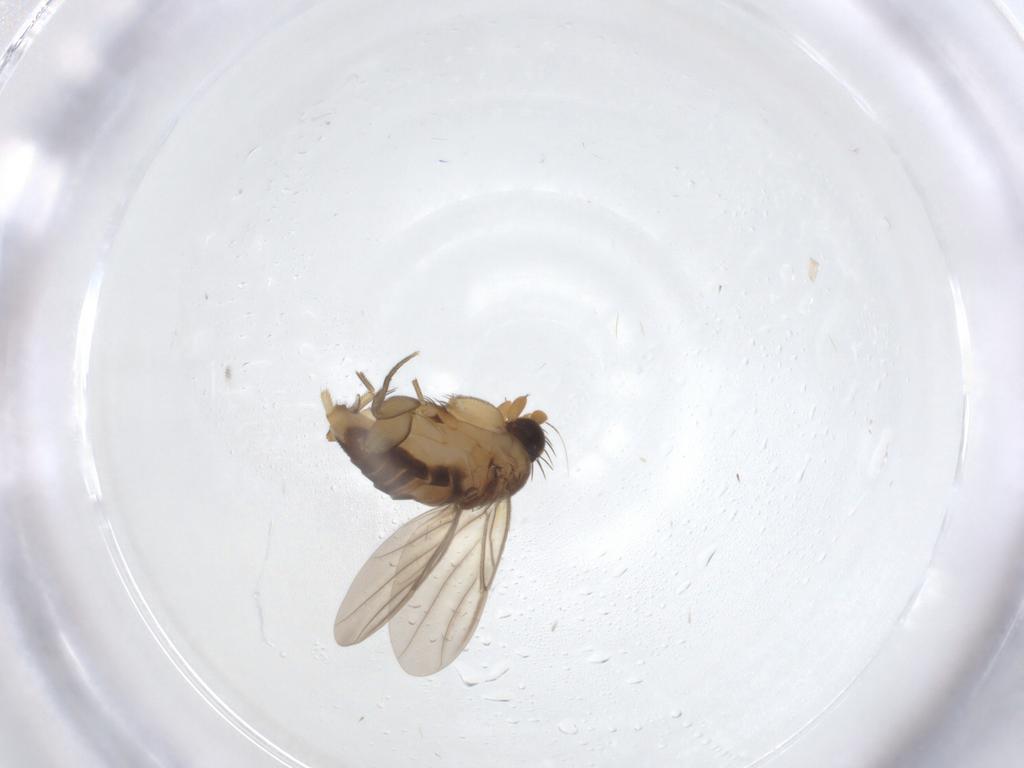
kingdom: Animalia
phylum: Arthropoda
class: Insecta
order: Diptera
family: Phoridae
